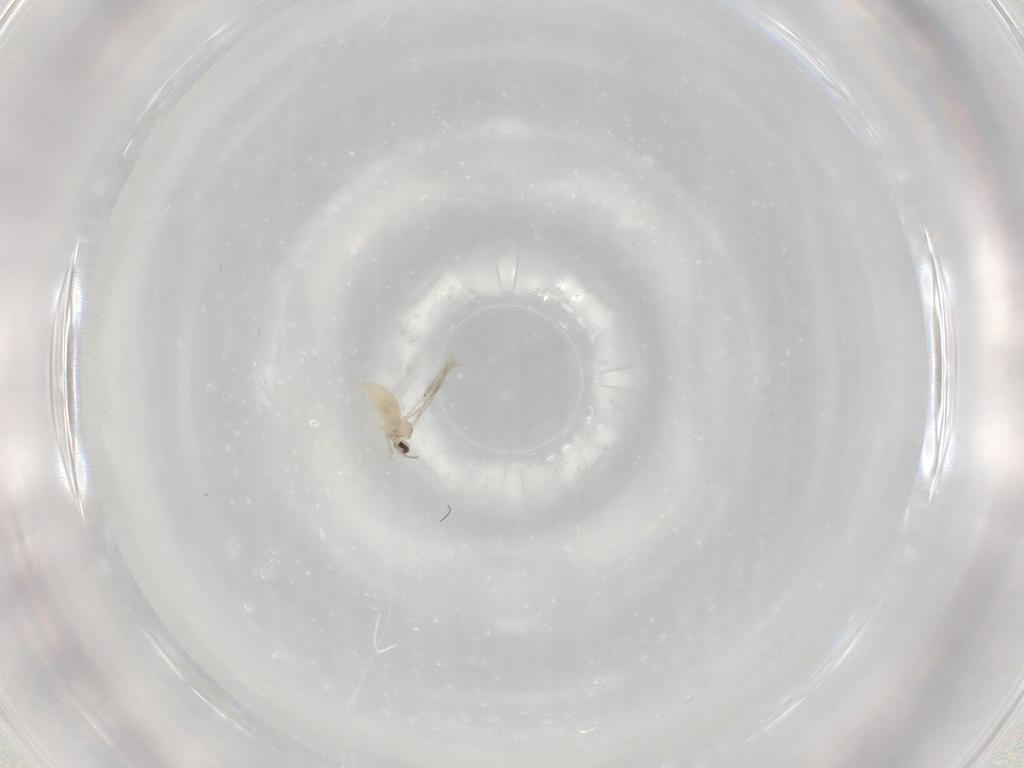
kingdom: Animalia
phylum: Arthropoda
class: Insecta
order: Diptera
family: Cecidomyiidae
